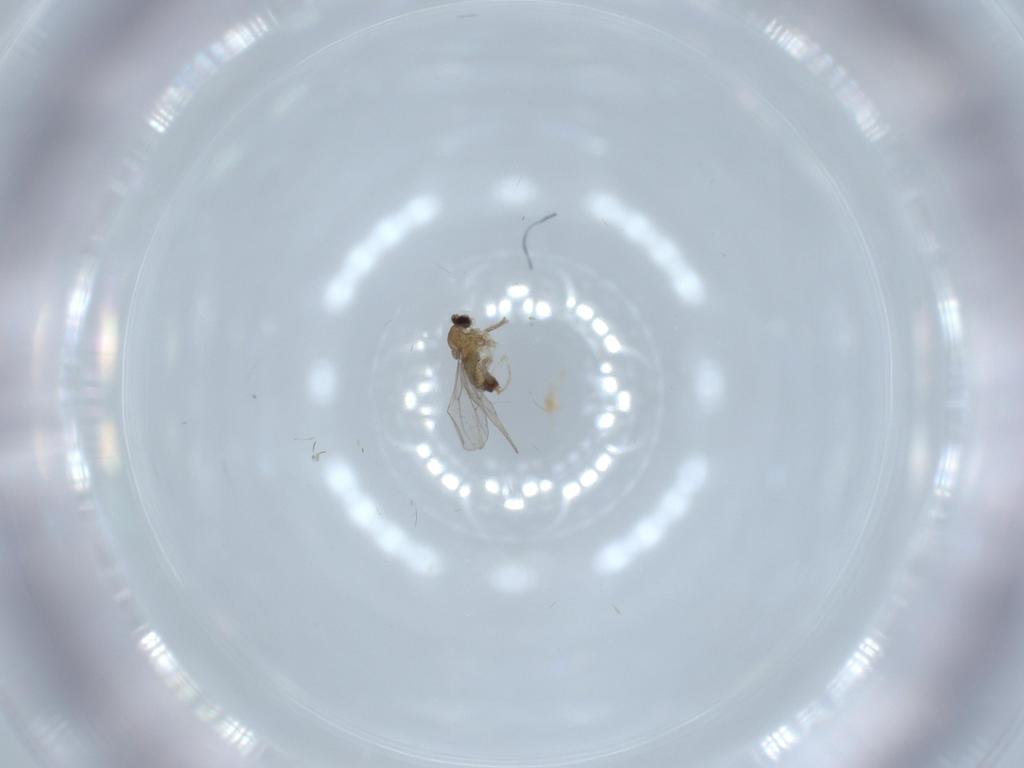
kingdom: Animalia
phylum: Arthropoda
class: Insecta
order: Diptera
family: Cecidomyiidae
